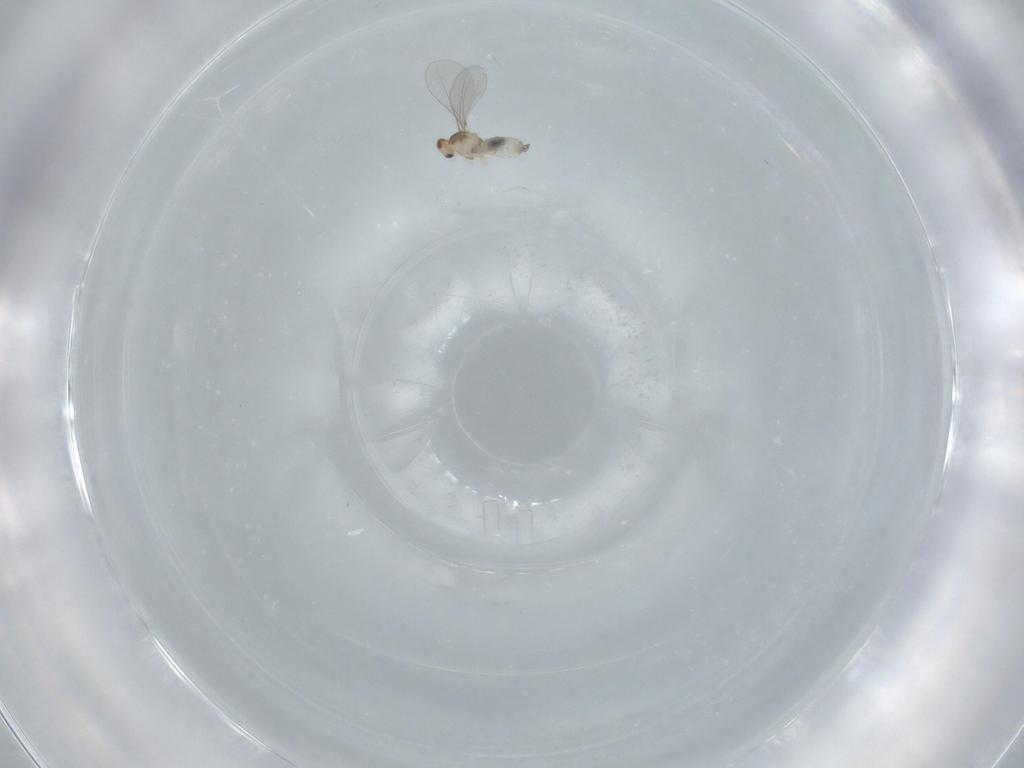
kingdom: Animalia
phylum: Arthropoda
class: Insecta
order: Diptera
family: Cecidomyiidae
